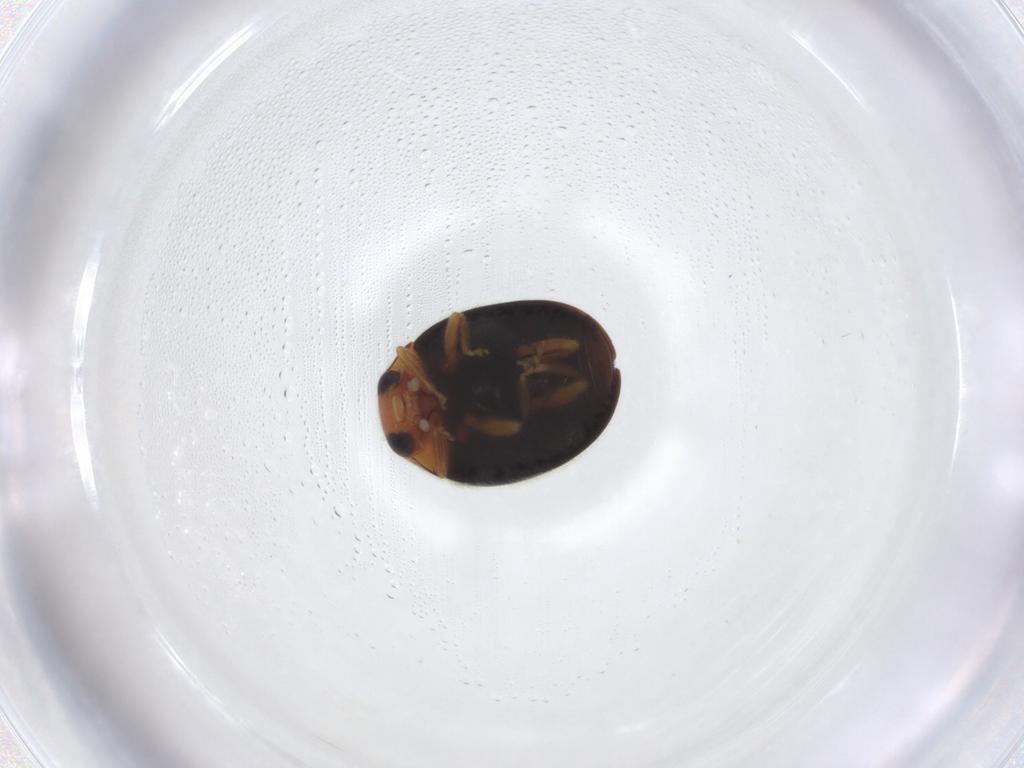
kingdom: Animalia
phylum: Arthropoda
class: Insecta
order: Coleoptera
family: Coccinellidae
